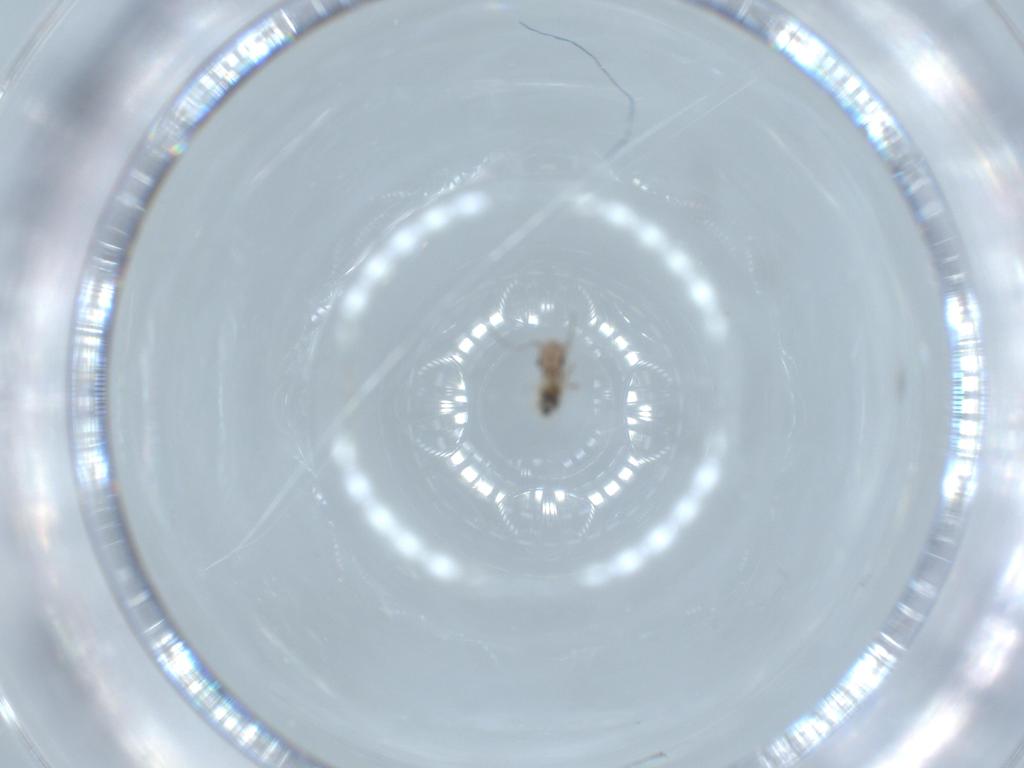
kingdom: Animalia
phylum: Arthropoda
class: Insecta
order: Psocodea
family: Lepidopsocidae
